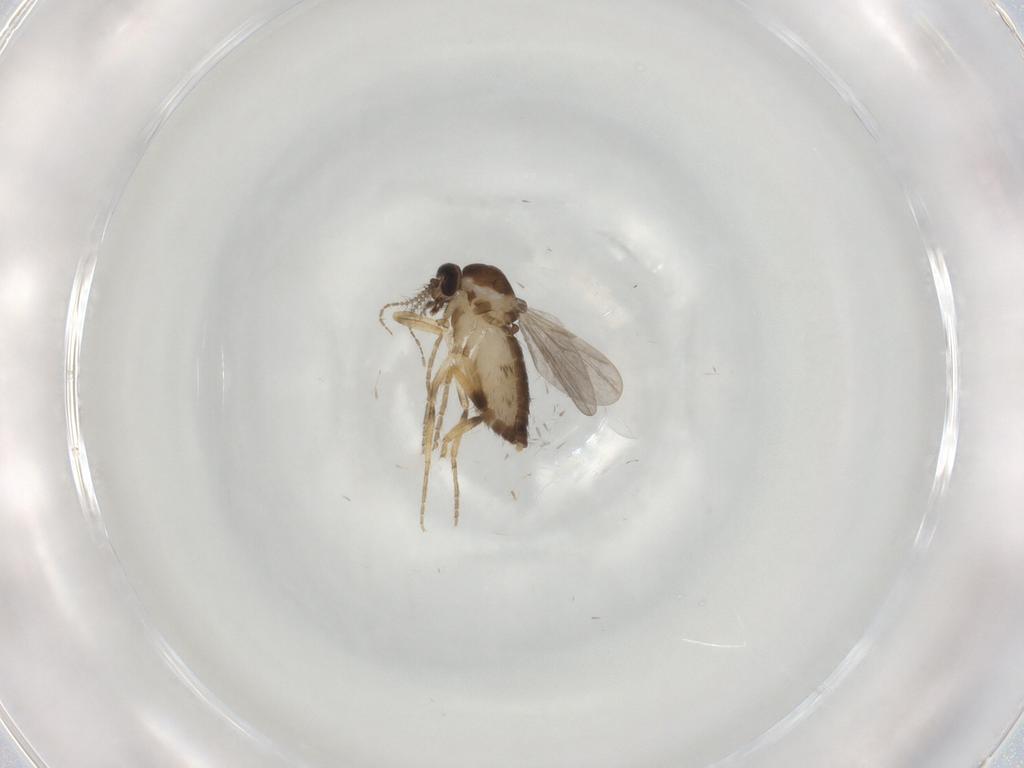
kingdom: Animalia
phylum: Arthropoda
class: Insecta
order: Diptera
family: Ceratopogonidae
